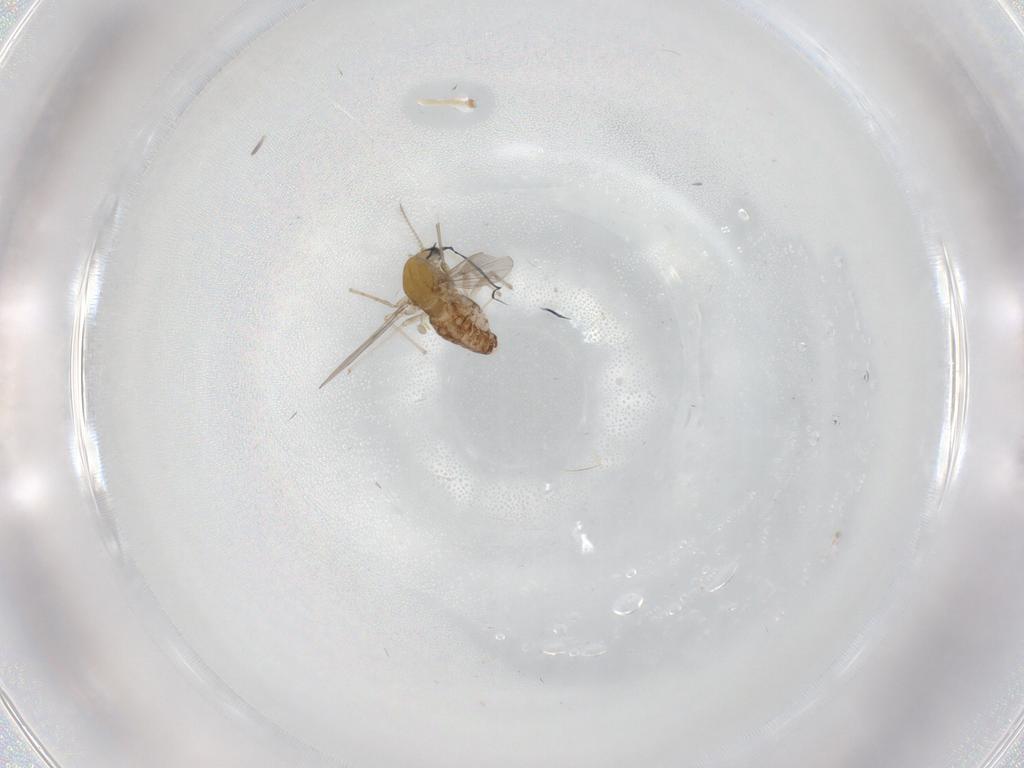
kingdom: Animalia
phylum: Arthropoda
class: Insecta
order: Diptera
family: Chironomidae
